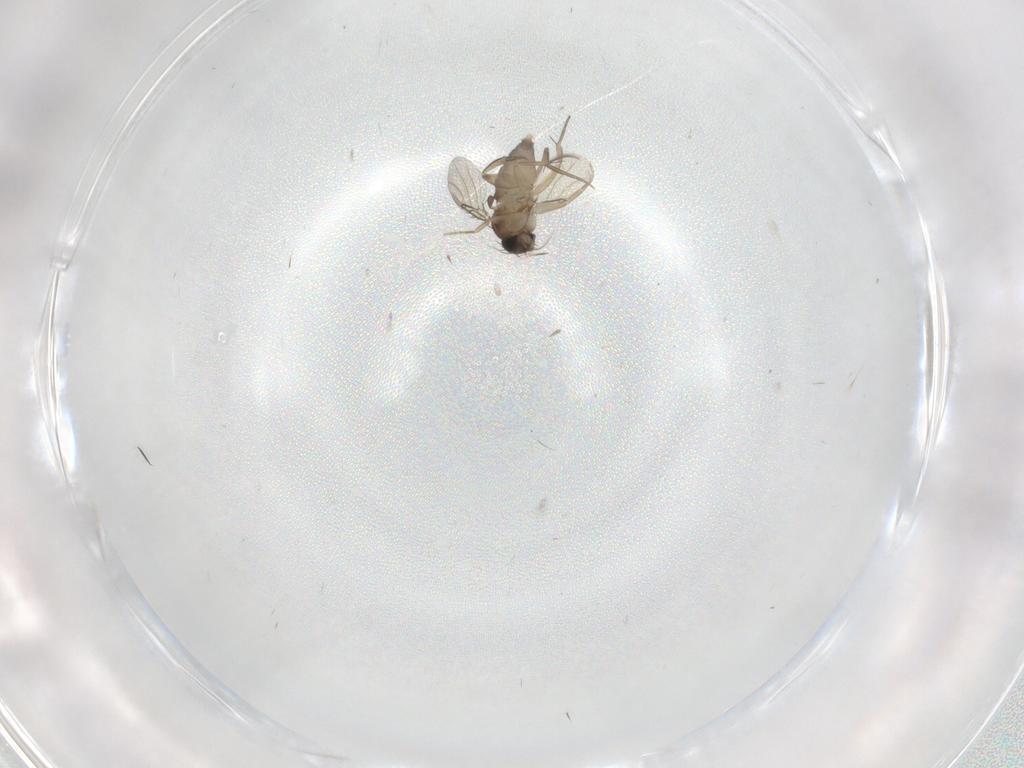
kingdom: Animalia
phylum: Arthropoda
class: Insecta
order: Diptera
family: Phoridae
